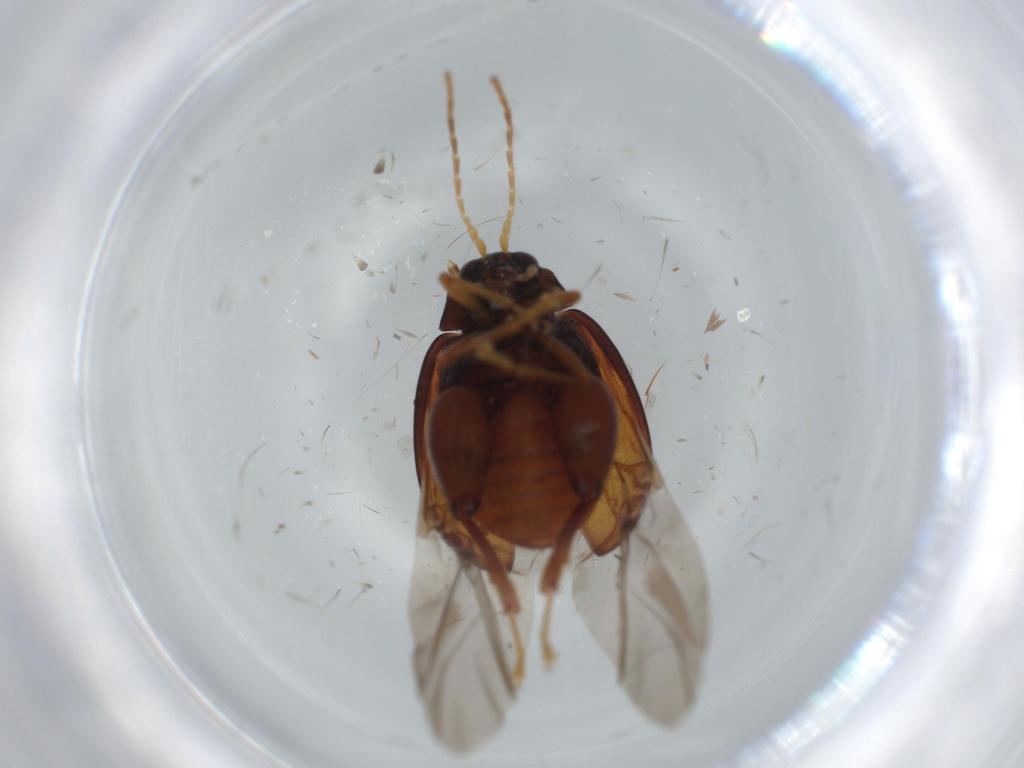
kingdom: Animalia
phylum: Arthropoda
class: Insecta
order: Coleoptera
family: Chrysomelidae
